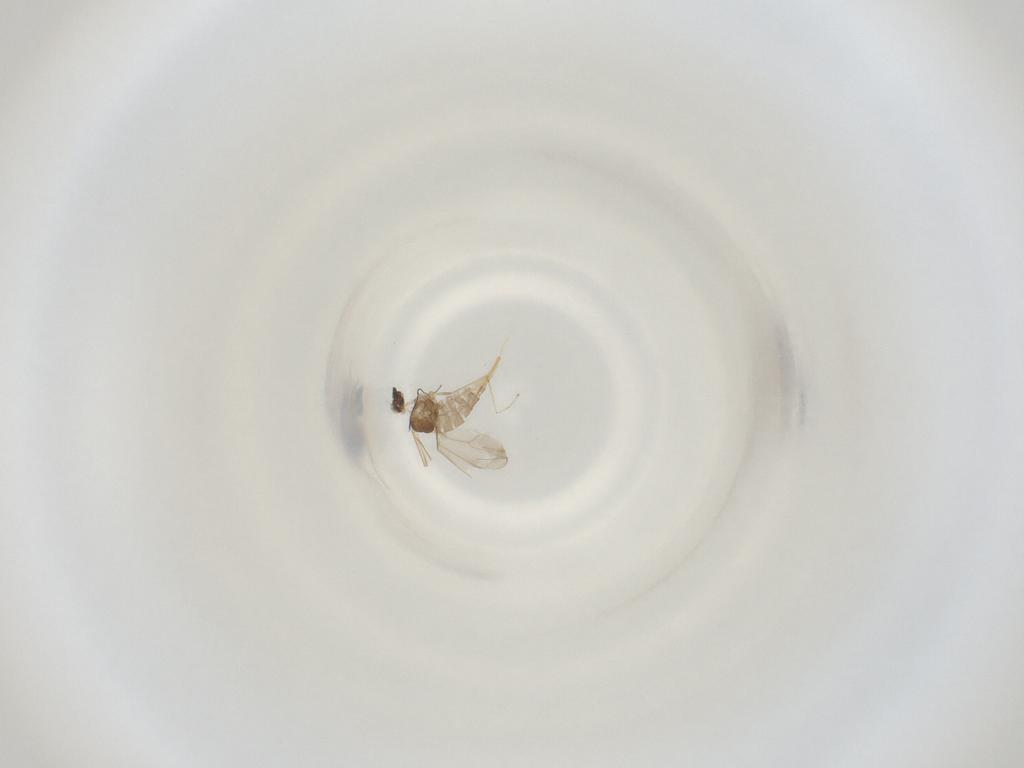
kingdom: Animalia
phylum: Arthropoda
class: Insecta
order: Diptera
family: Cecidomyiidae
